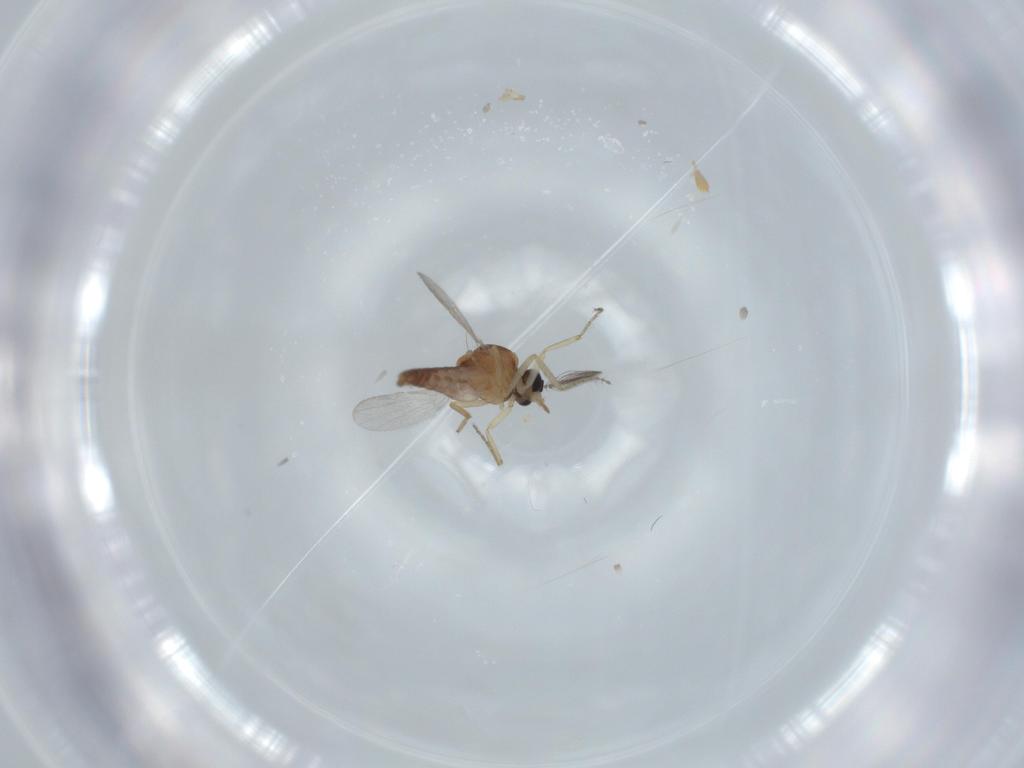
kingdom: Animalia
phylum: Arthropoda
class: Insecta
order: Diptera
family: Ceratopogonidae
